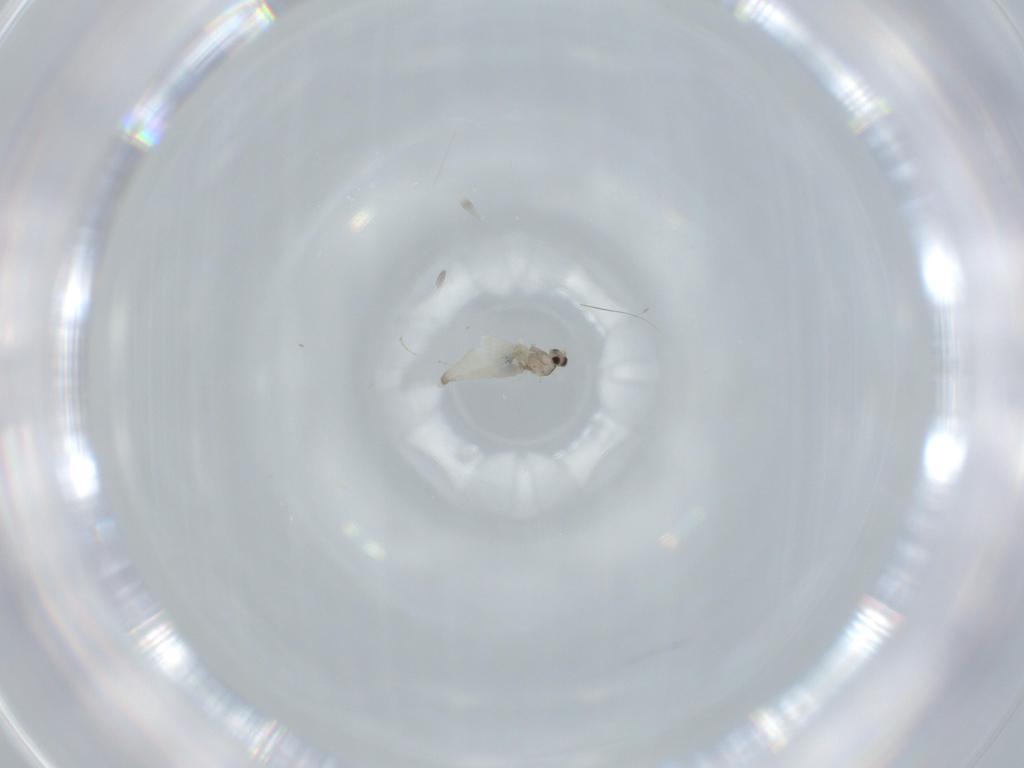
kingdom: Animalia
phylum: Arthropoda
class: Insecta
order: Diptera
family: Cecidomyiidae
